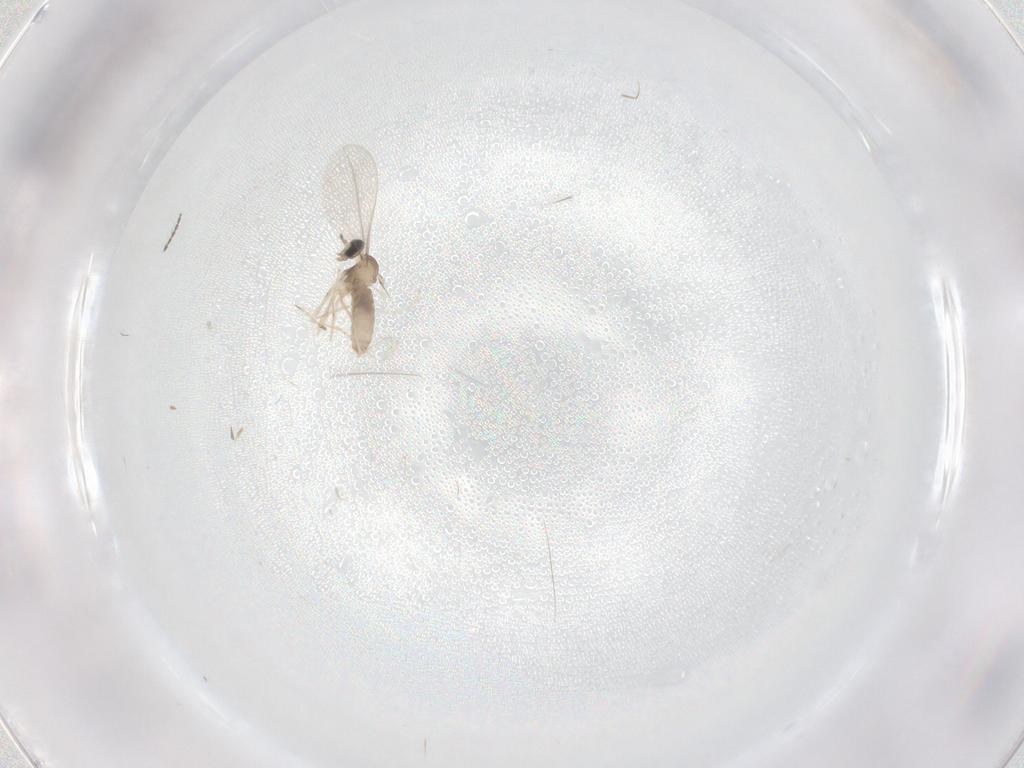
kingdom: Animalia
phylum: Arthropoda
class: Insecta
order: Diptera
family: Cecidomyiidae
